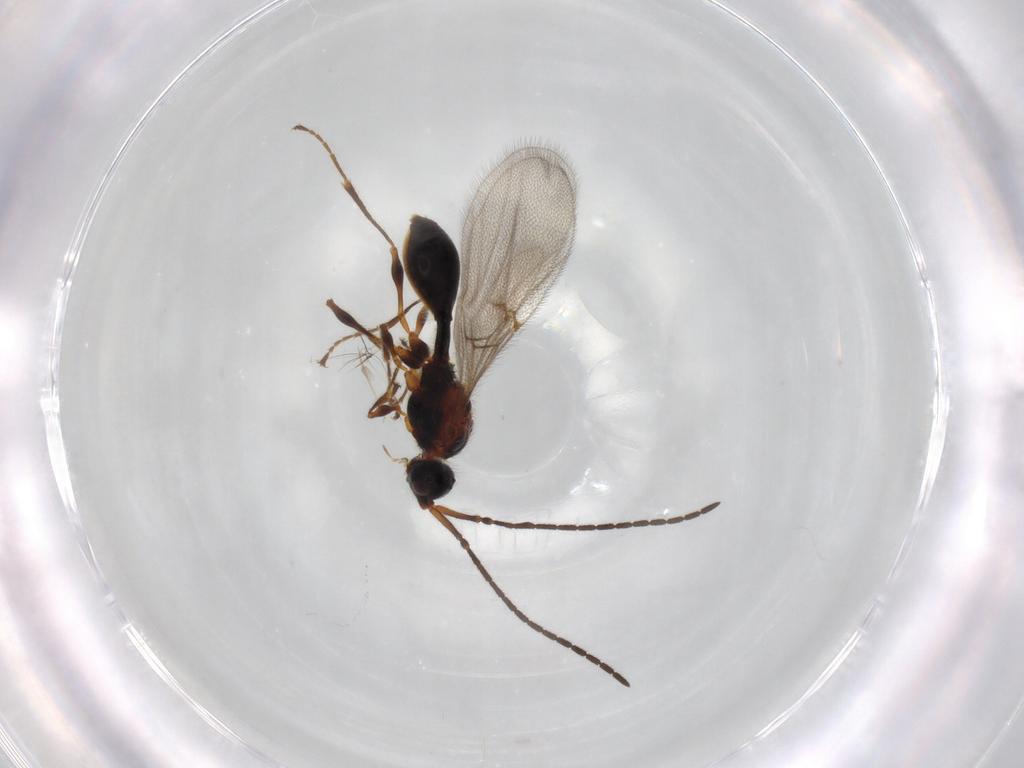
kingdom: Animalia
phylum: Arthropoda
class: Insecta
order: Hymenoptera
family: Diapriidae
